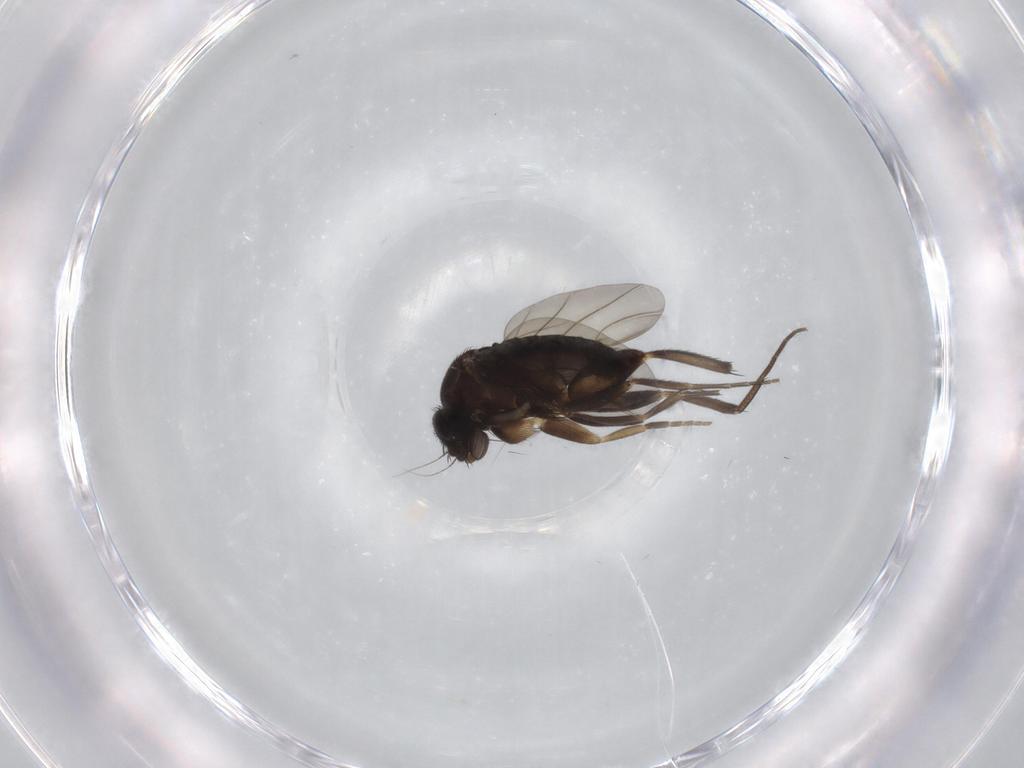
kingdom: Animalia
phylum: Arthropoda
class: Insecta
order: Diptera
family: Phoridae
